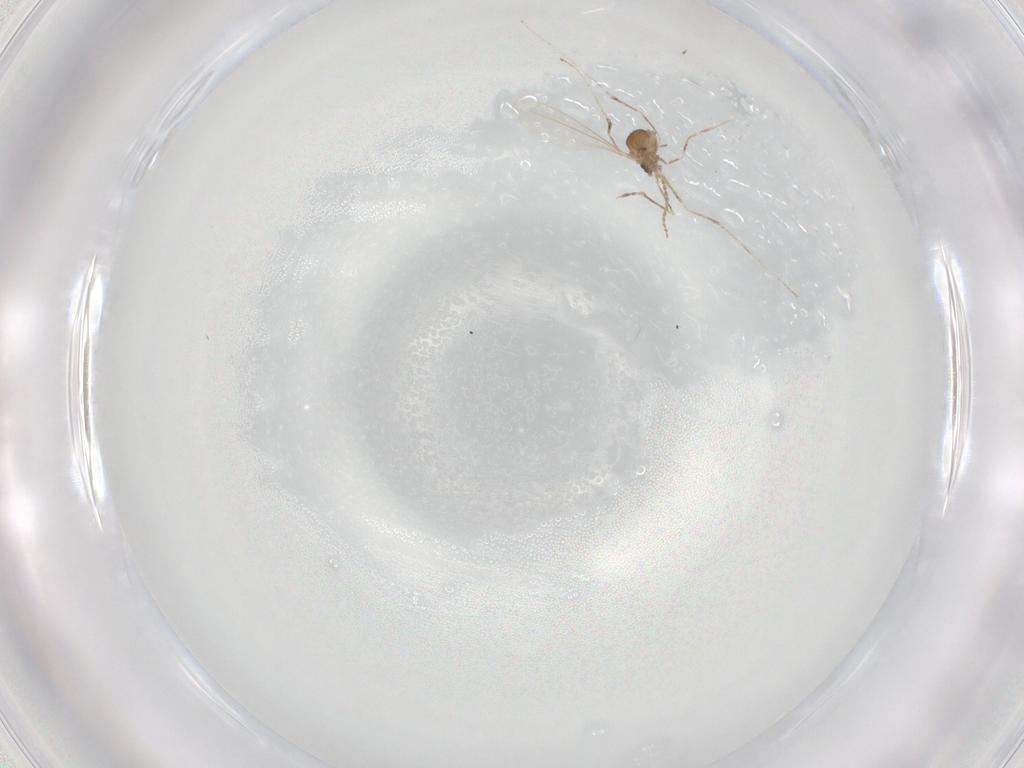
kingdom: Animalia
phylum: Arthropoda
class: Insecta
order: Diptera
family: Cecidomyiidae
